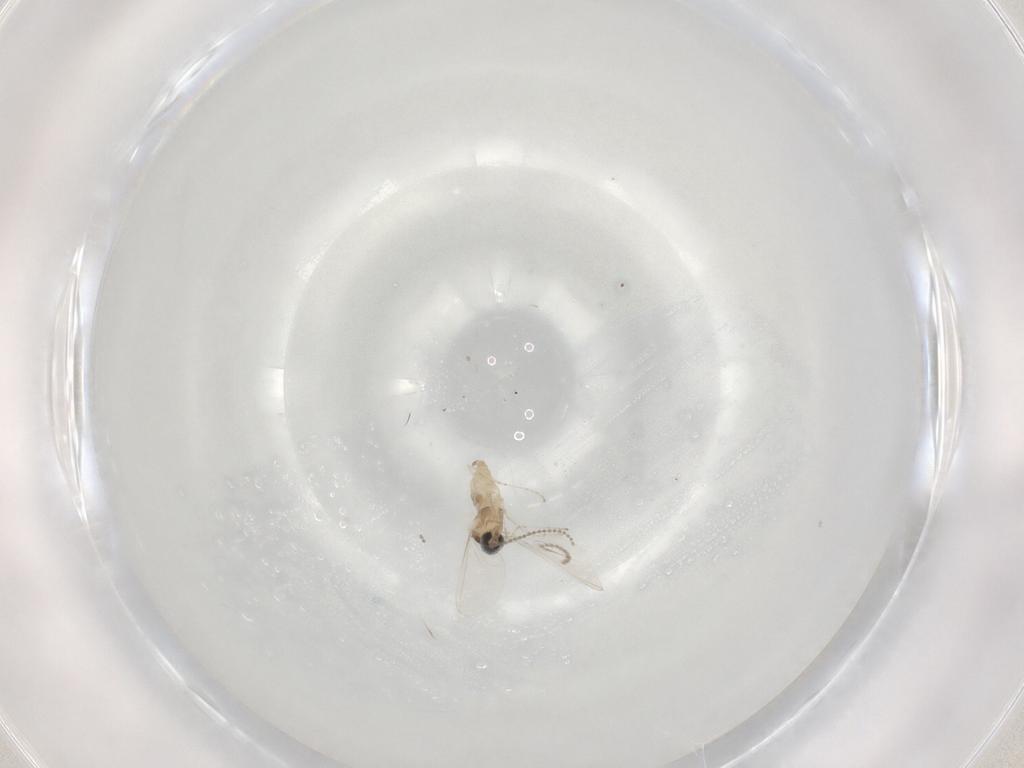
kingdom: Animalia
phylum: Arthropoda
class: Insecta
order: Diptera
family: Cecidomyiidae
